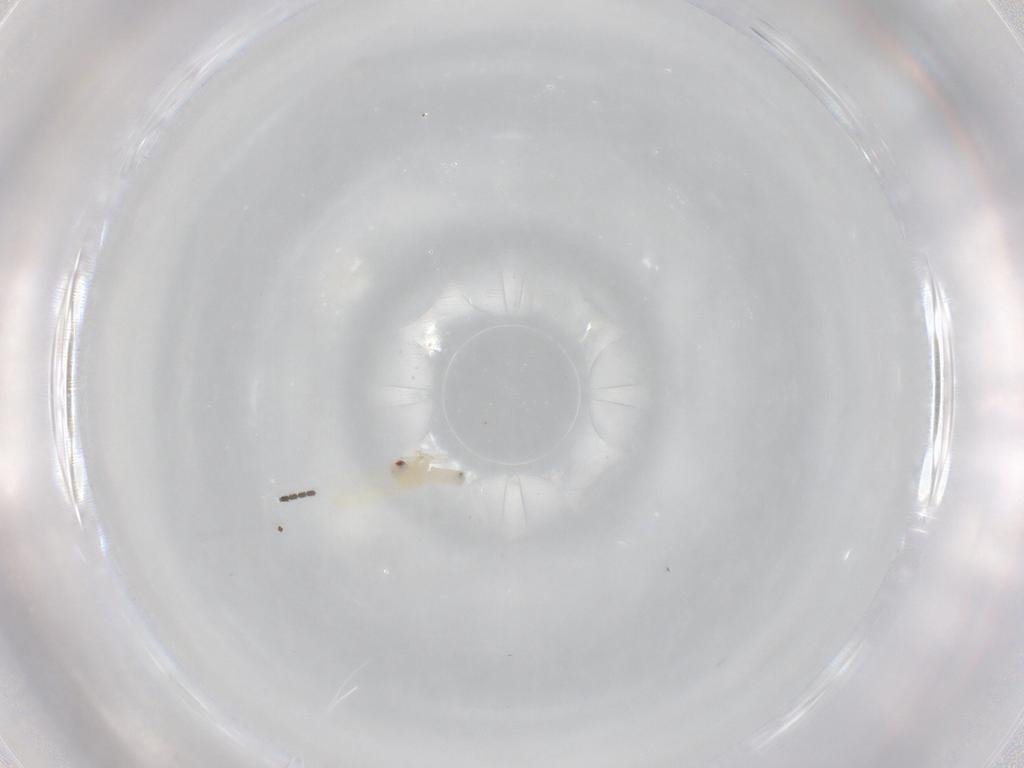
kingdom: Animalia
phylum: Arthropoda
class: Insecta
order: Hemiptera
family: Aleyrodidae
